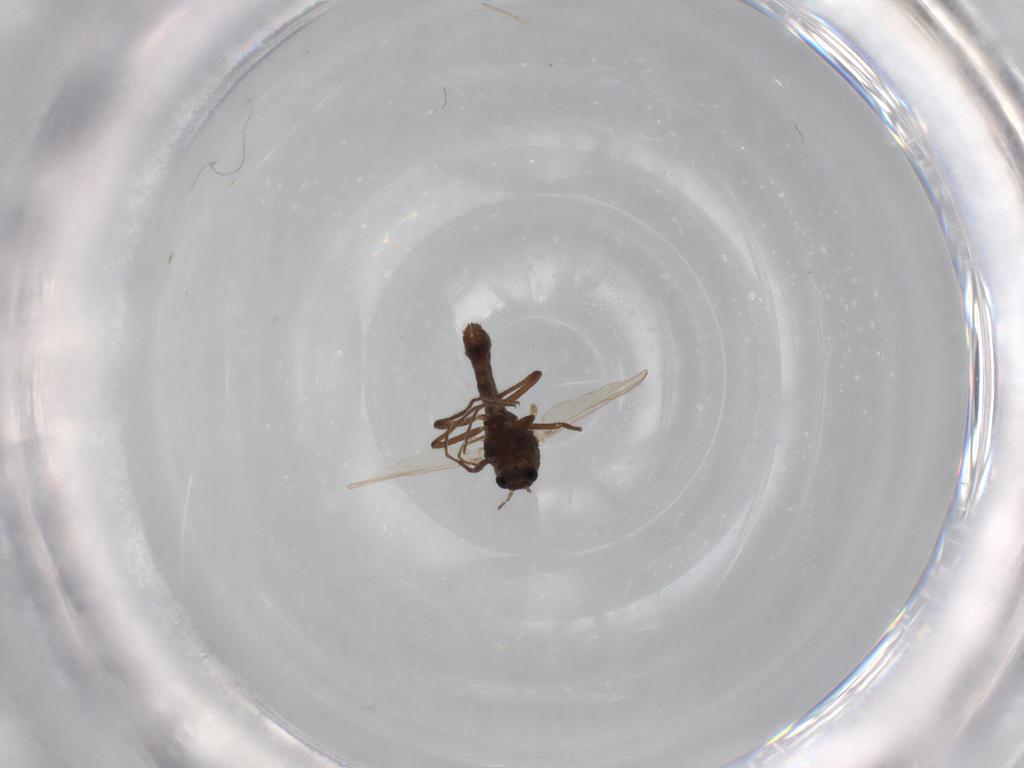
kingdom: Animalia
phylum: Arthropoda
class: Insecta
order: Diptera
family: Chironomidae
